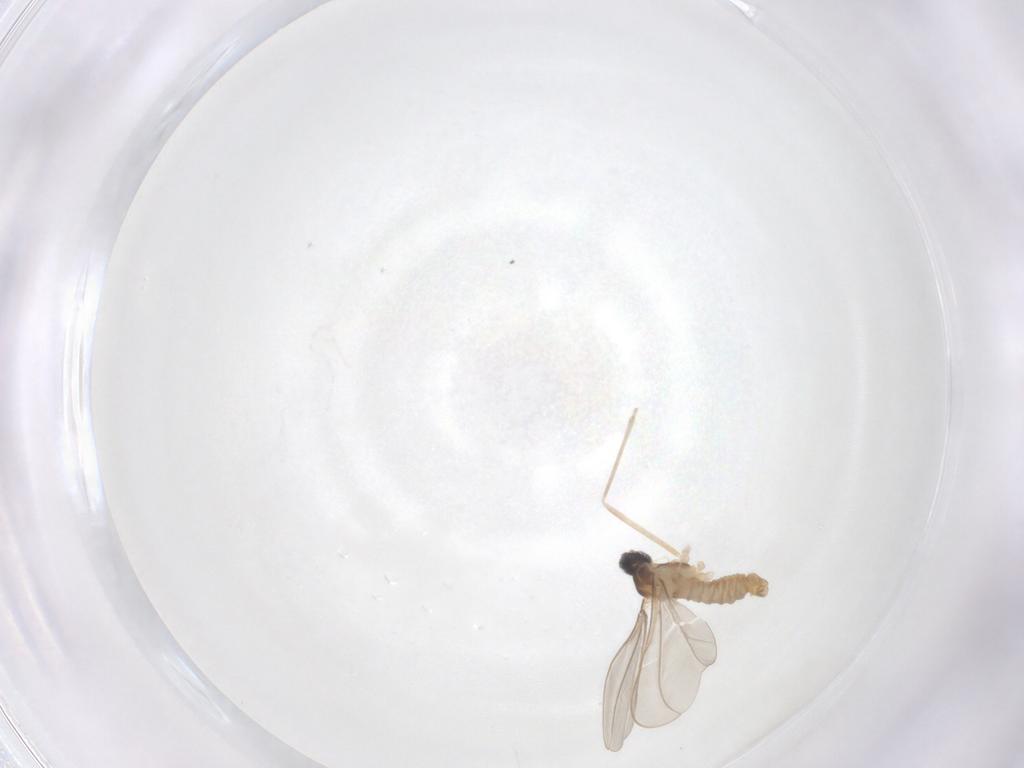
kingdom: Animalia
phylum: Arthropoda
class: Insecta
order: Diptera
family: Cecidomyiidae
